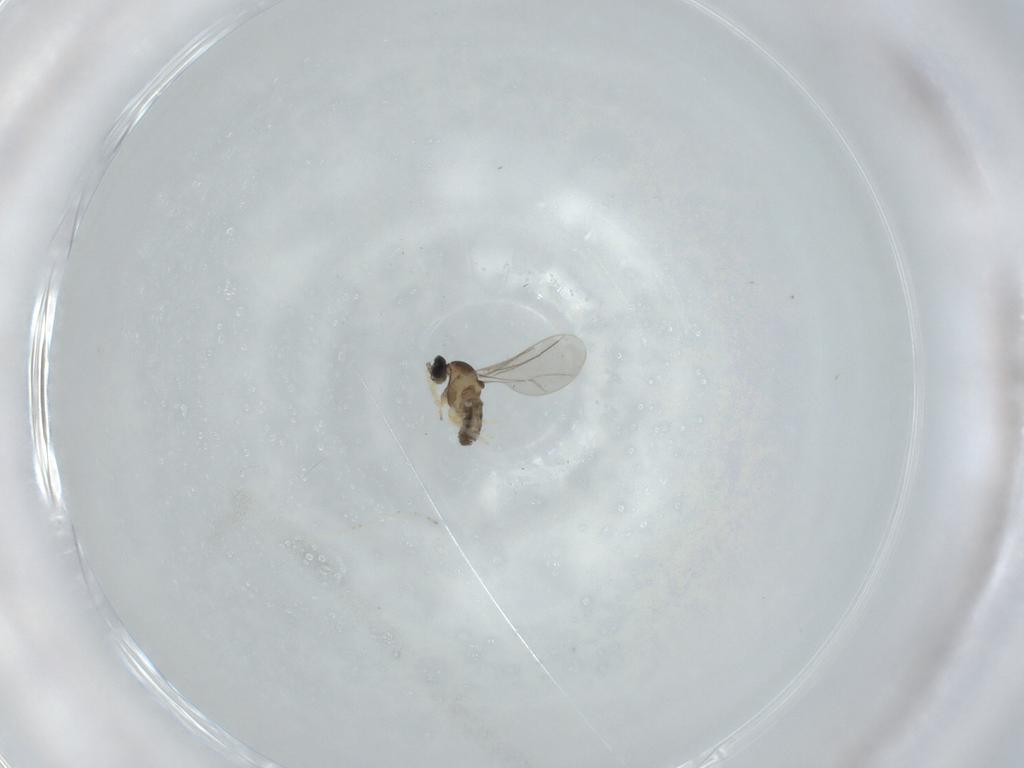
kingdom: Animalia
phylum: Arthropoda
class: Insecta
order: Diptera
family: Cecidomyiidae
